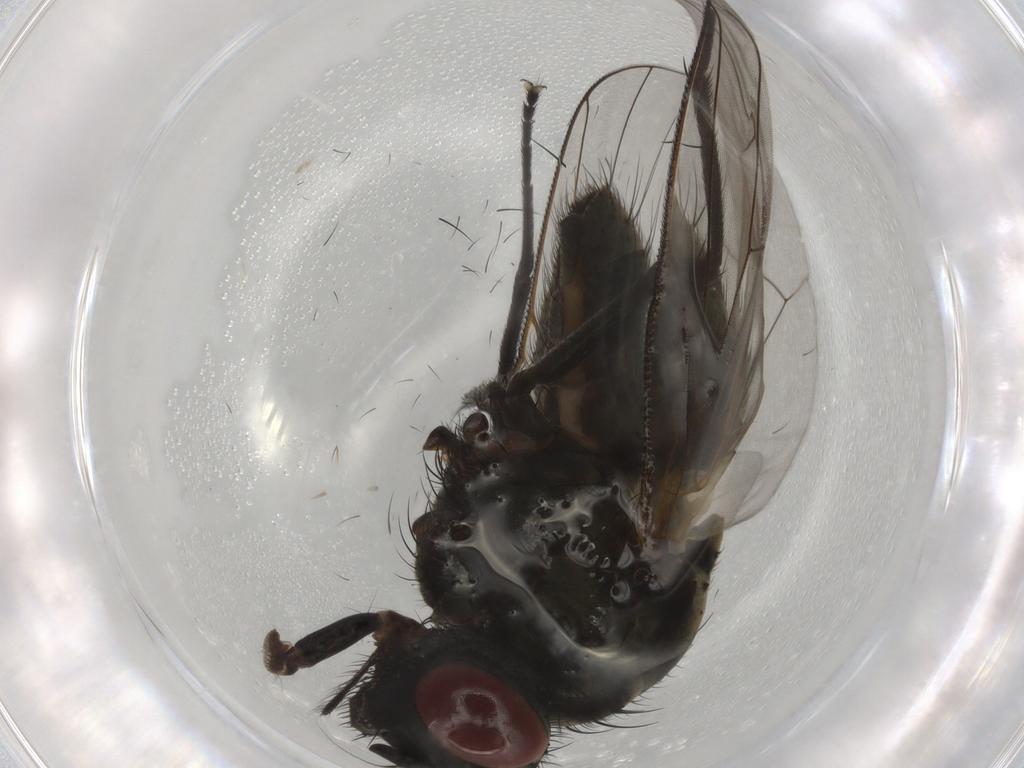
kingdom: Animalia
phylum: Arthropoda
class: Insecta
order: Diptera
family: Muscidae
